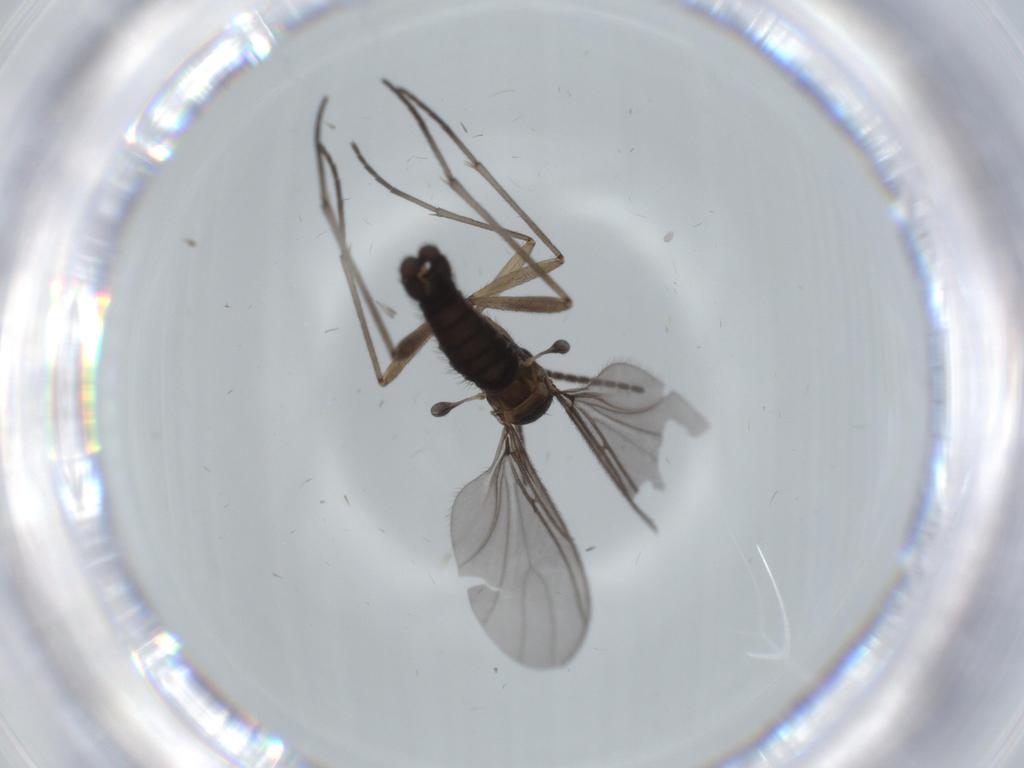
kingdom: Animalia
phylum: Arthropoda
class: Insecta
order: Diptera
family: Sciaridae
